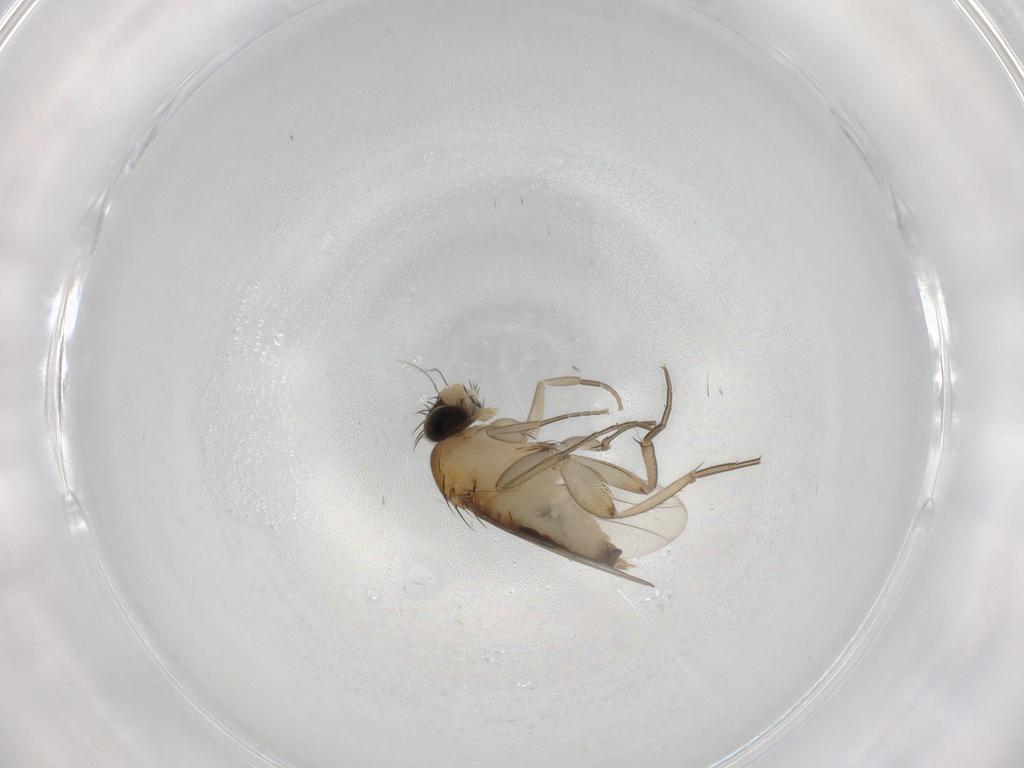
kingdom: Animalia
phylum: Arthropoda
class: Insecta
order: Diptera
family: Phoridae
